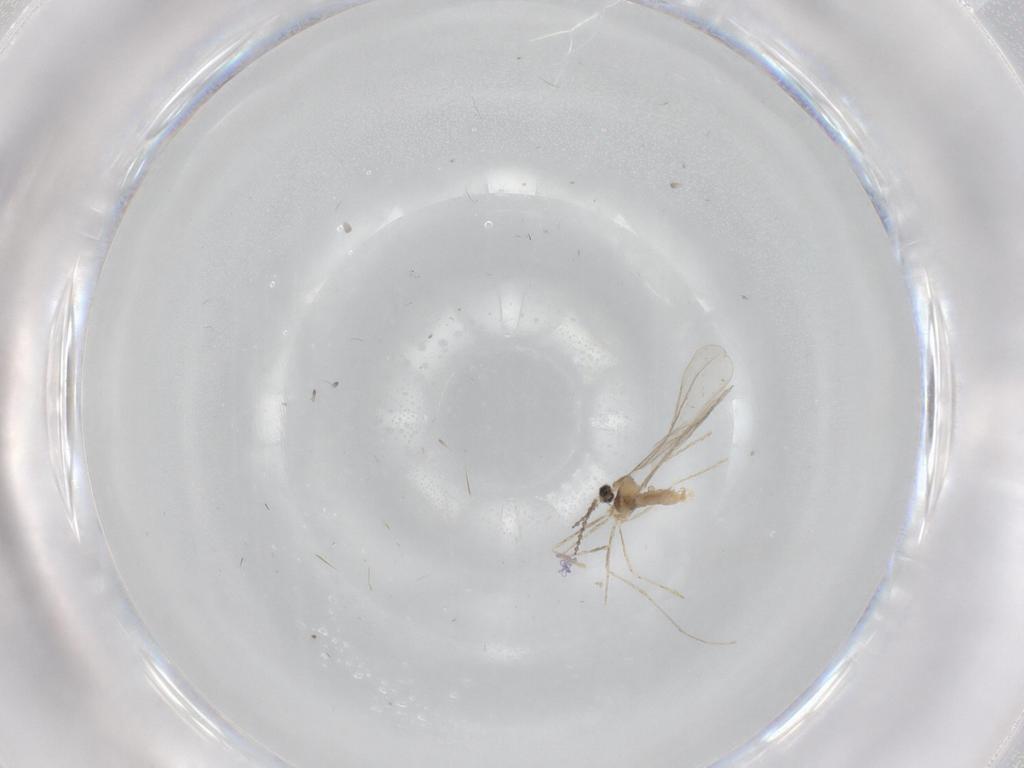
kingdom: Animalia
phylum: Arthropoda
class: Insecta
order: Diptera
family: Cecidomyiidae
